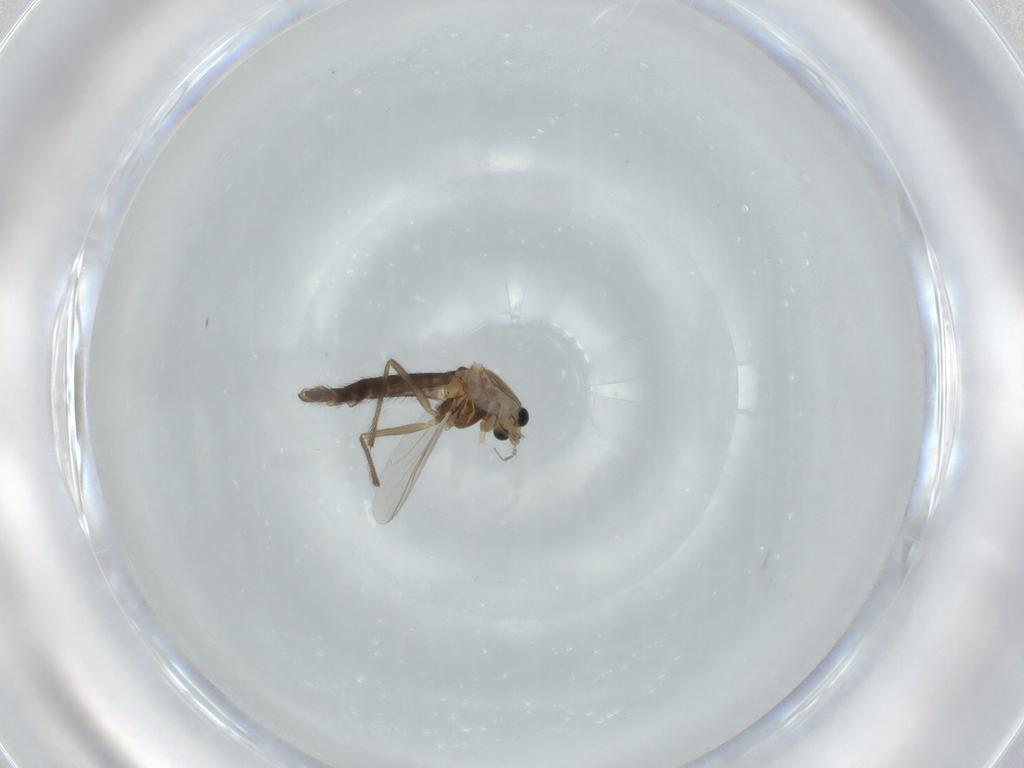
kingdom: Animalia
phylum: Arthropoda
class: Insecta
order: Diptera
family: Chironomidae
